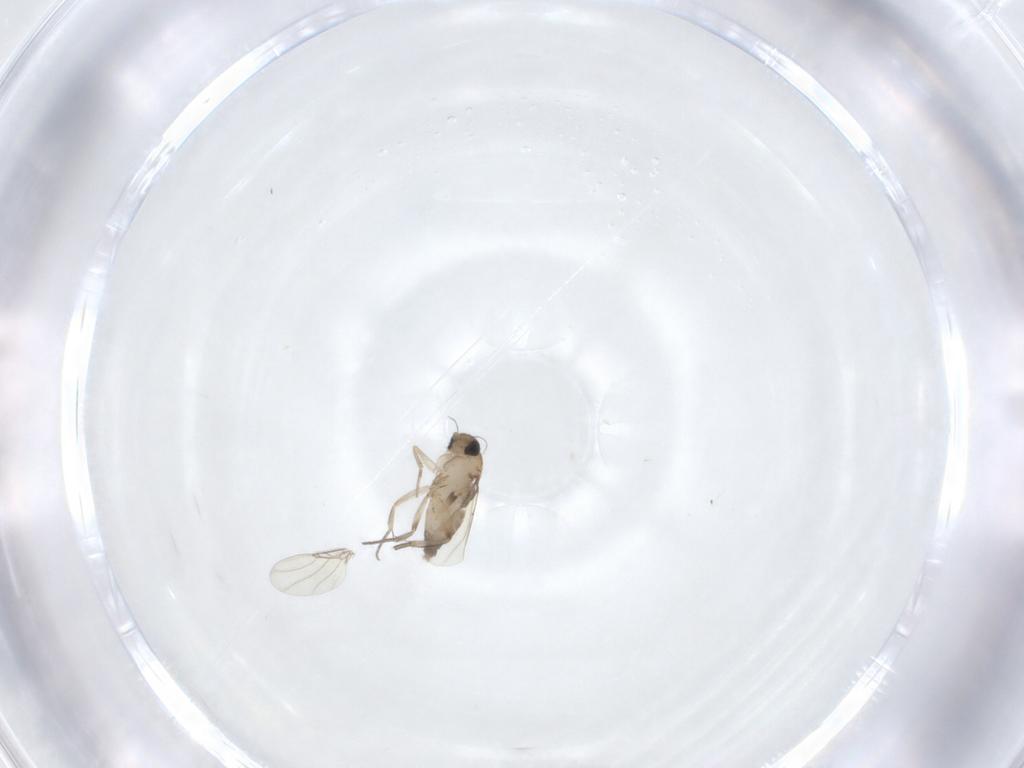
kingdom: Animalia
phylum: Arthropoda
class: Insecta
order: Diptera
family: Phoridae
